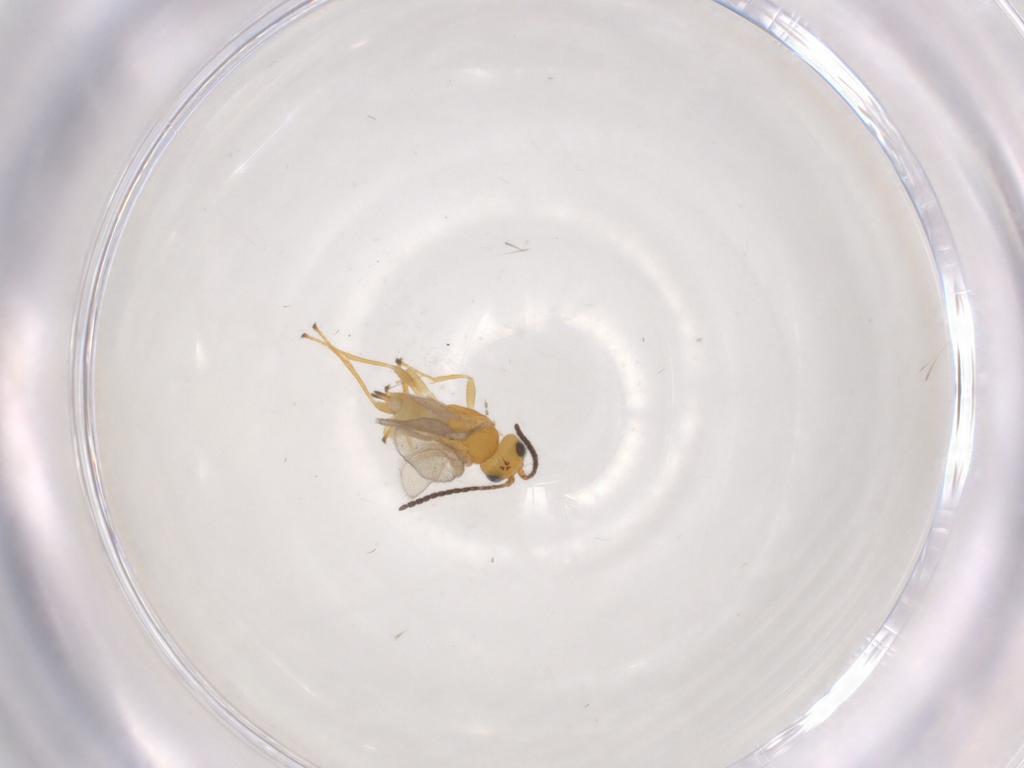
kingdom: Animalia
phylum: Arthropoda
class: Insecta
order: Hymenoptera
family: Braconidae
